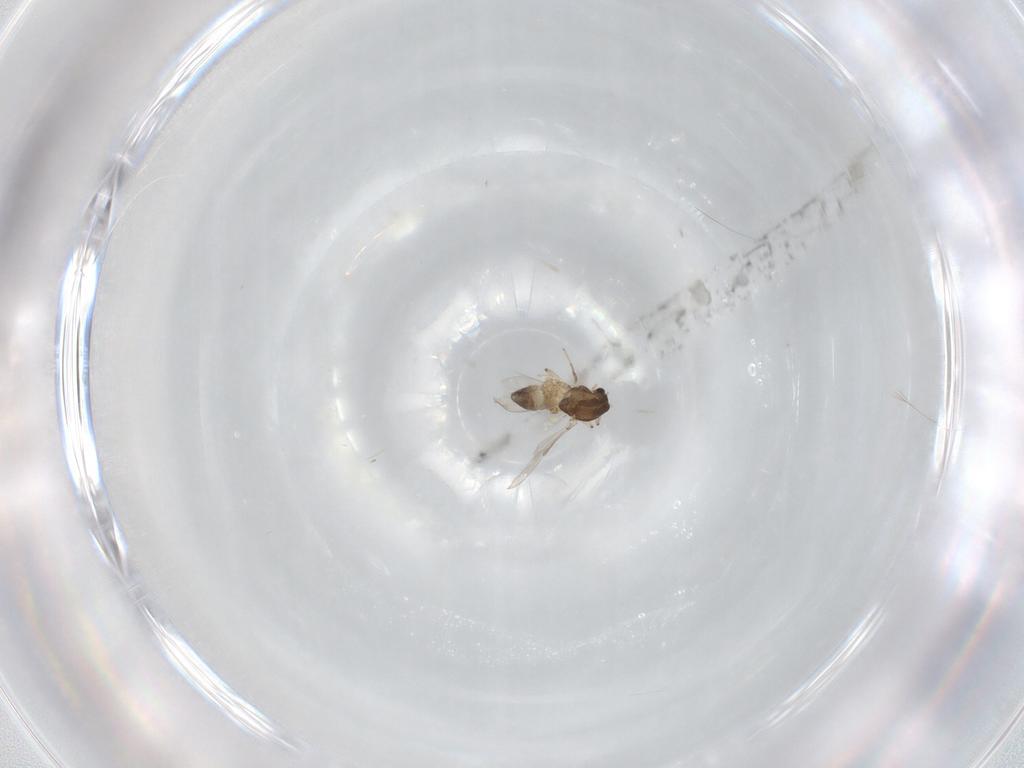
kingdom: Animalia
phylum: Arthropoda
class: Insecta
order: Diptera
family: Chironomidae
